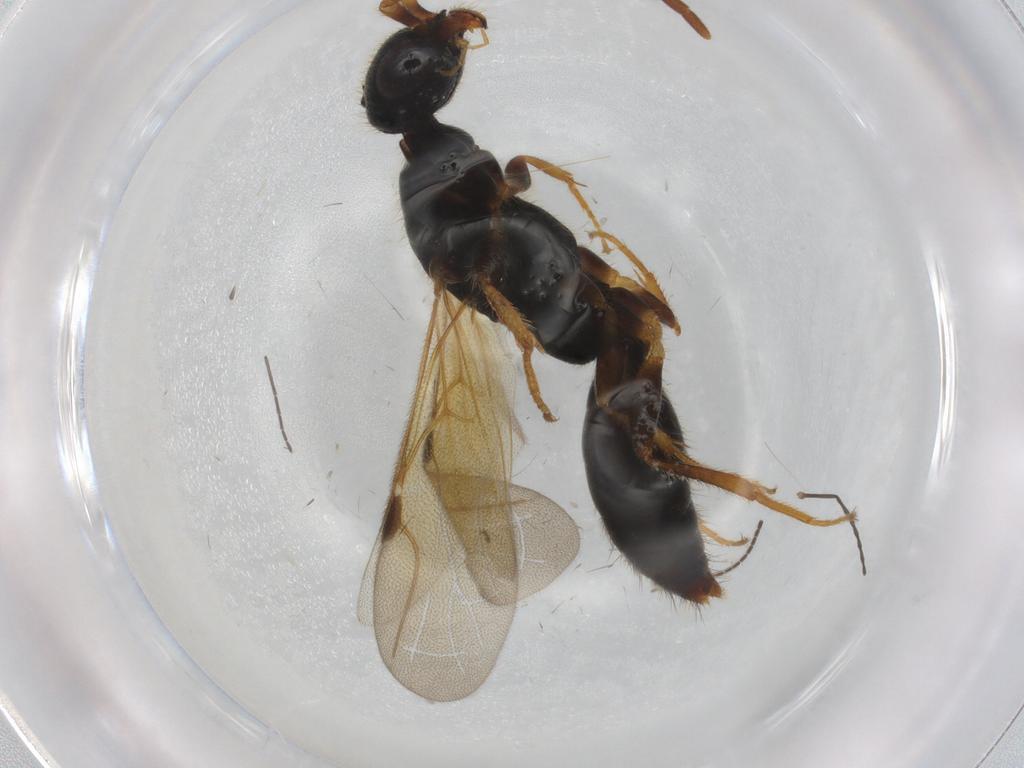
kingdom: Animalia
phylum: Arthropoda
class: Insecta
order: Hymenoptera
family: Bethylidae
